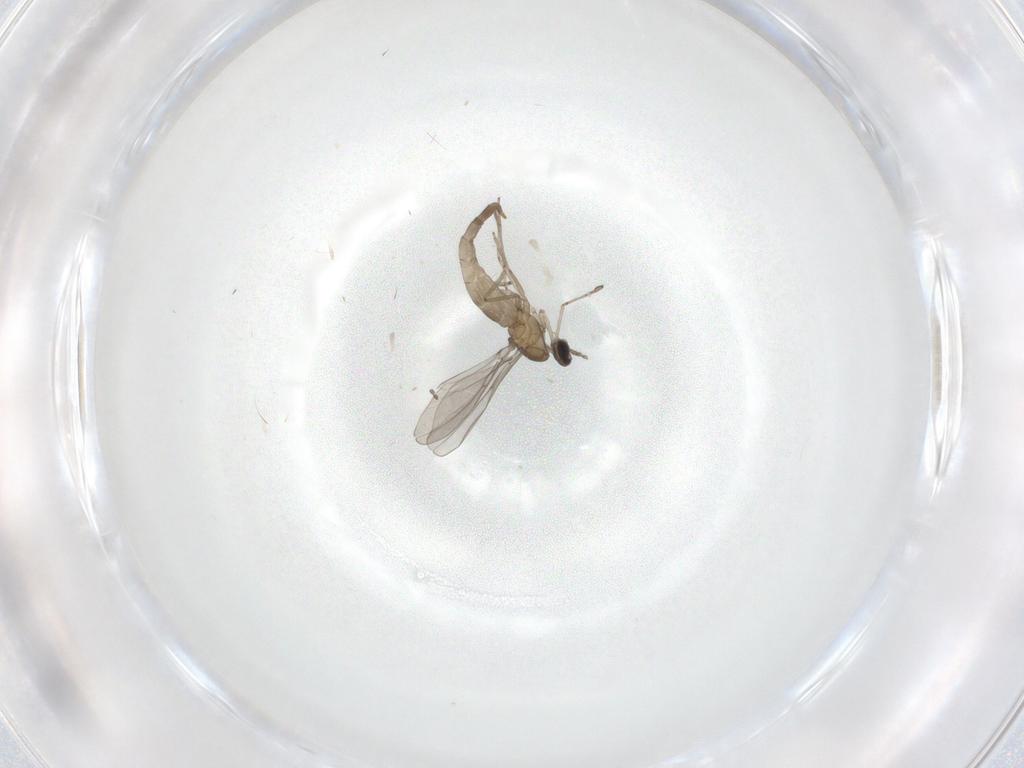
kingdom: Animalia
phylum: Arthropoda
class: Insecta
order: Diptera
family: Cecidomyiidae
